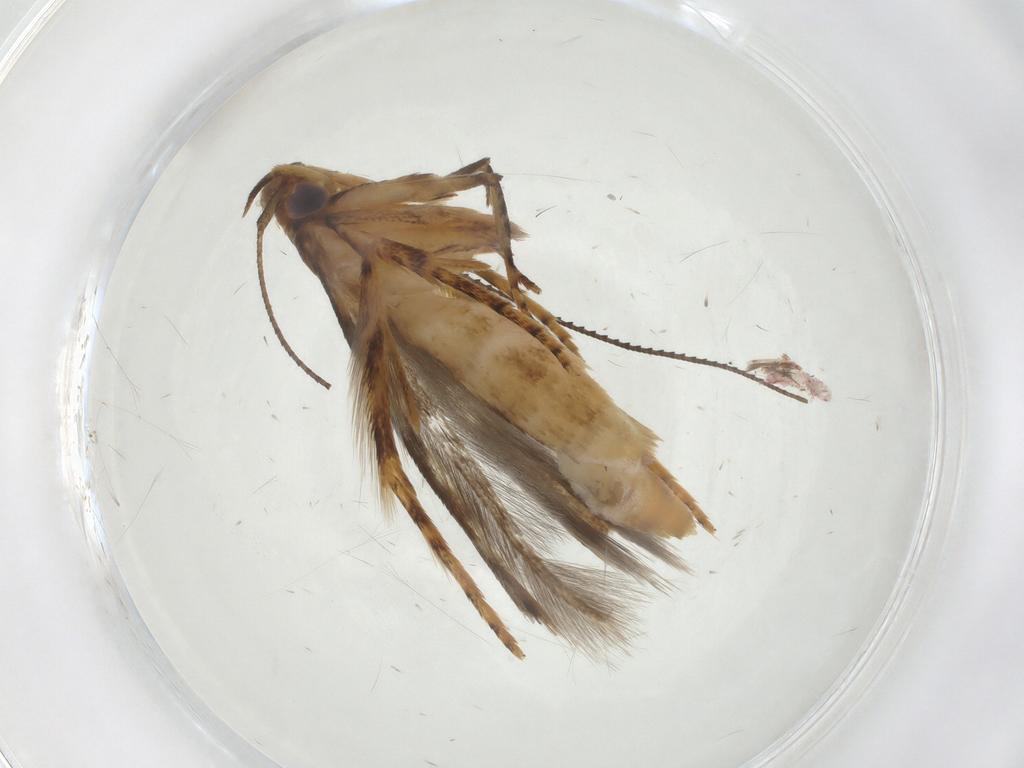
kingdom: Animalia
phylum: Arthropoda
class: Insecta
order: Lepidoptera
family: Heliodinidae
